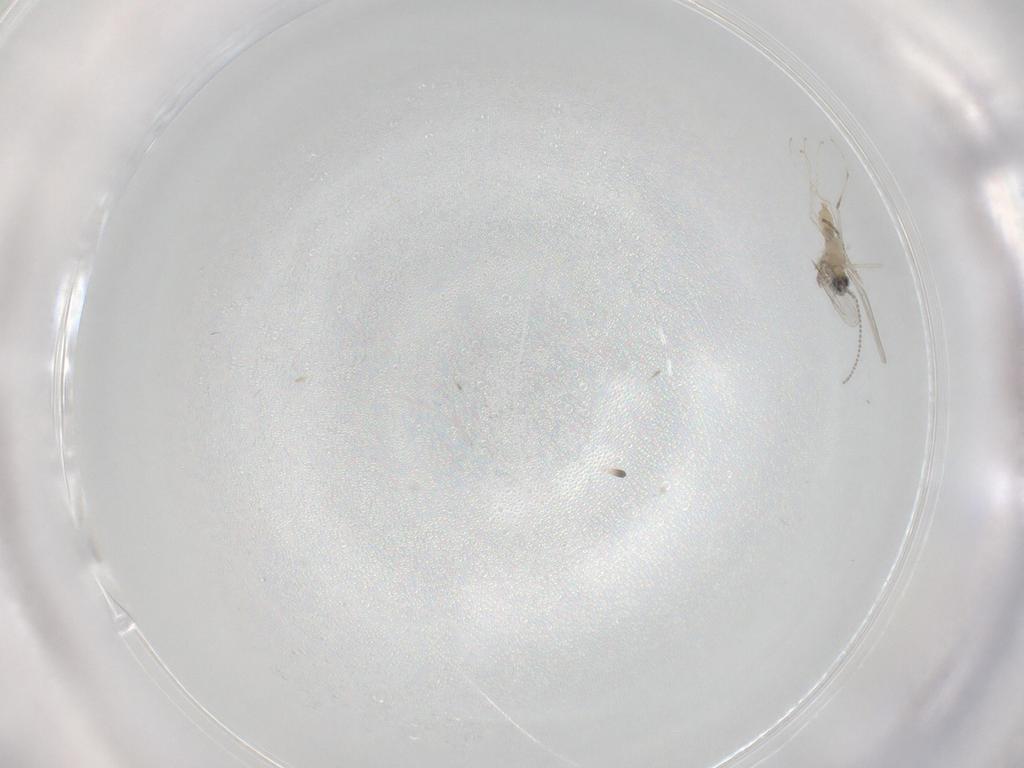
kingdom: Animalia
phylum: Arthropoda
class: Insecta
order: Diptera
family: Cecidomyiidae
